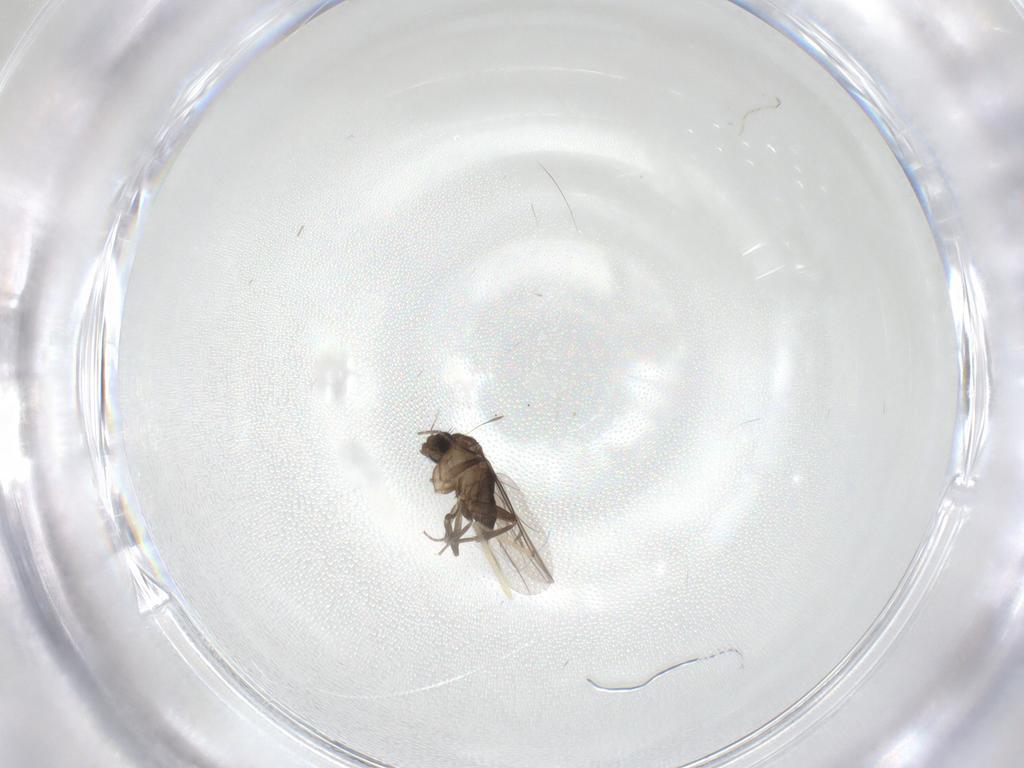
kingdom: Animalia
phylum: Arthropoda
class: Insecta
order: Diptera
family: Chironomidae
